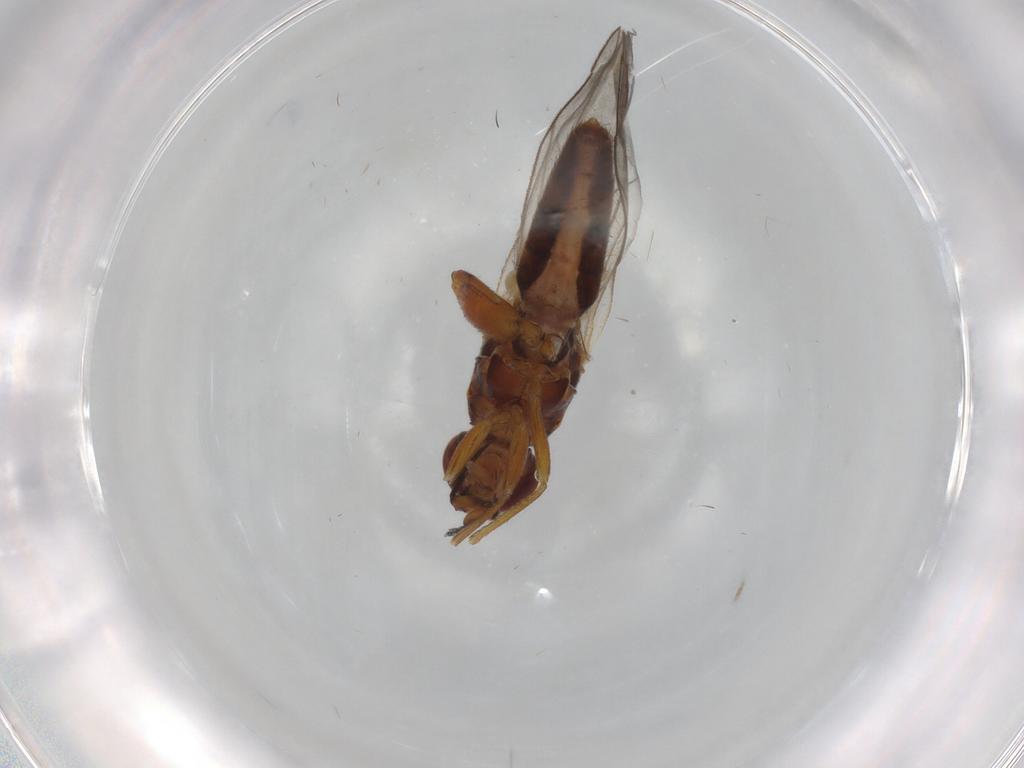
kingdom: Animalia
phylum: Arthropoda
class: Insecta
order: Diptera
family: Chloropidae
